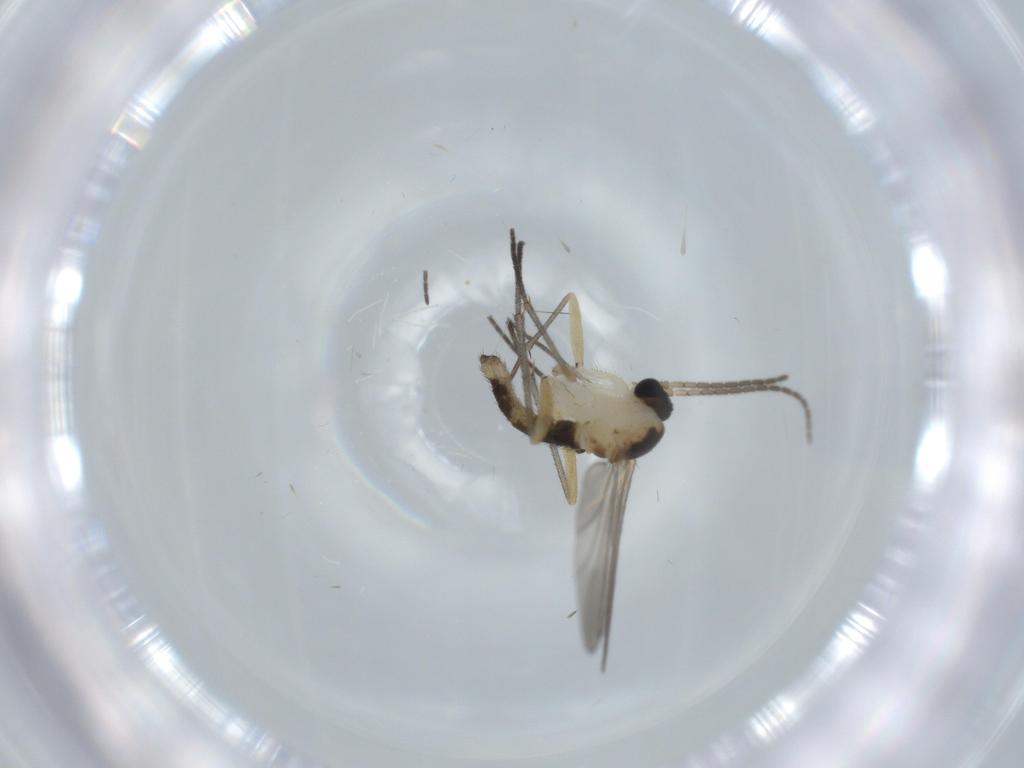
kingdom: Animalia
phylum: Arthropoda
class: Insecta
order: Diptera
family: Sciaridae
